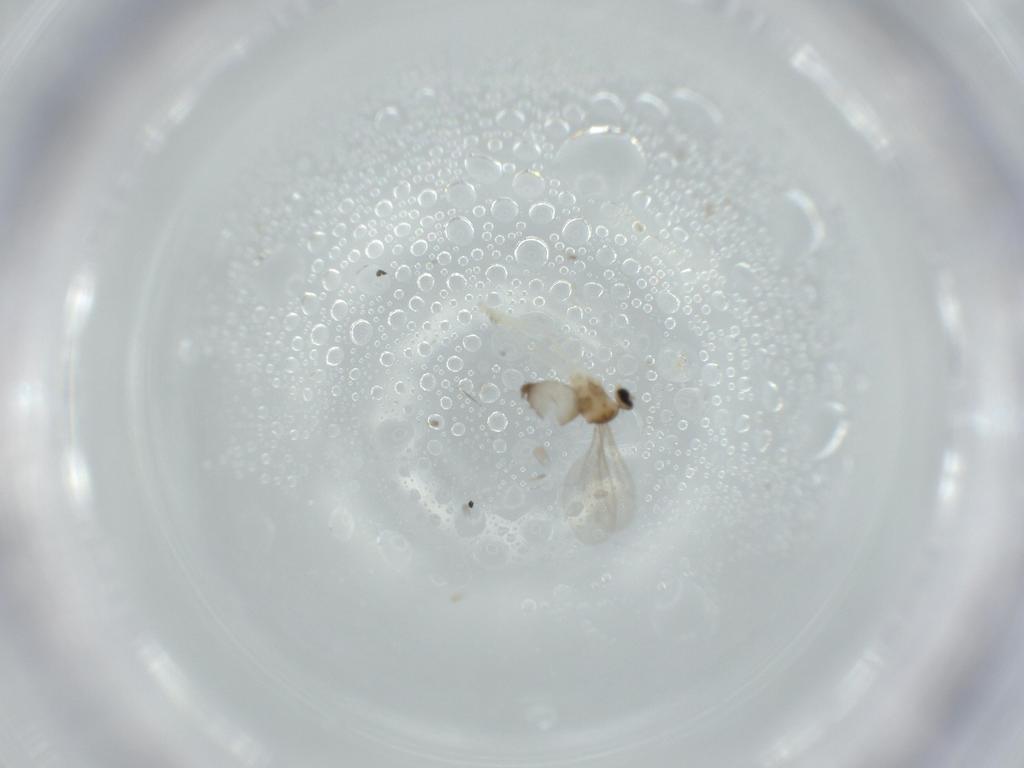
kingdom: Animalia
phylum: Arthropoda
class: Insecta
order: Diptera
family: Cecidomyiidae
